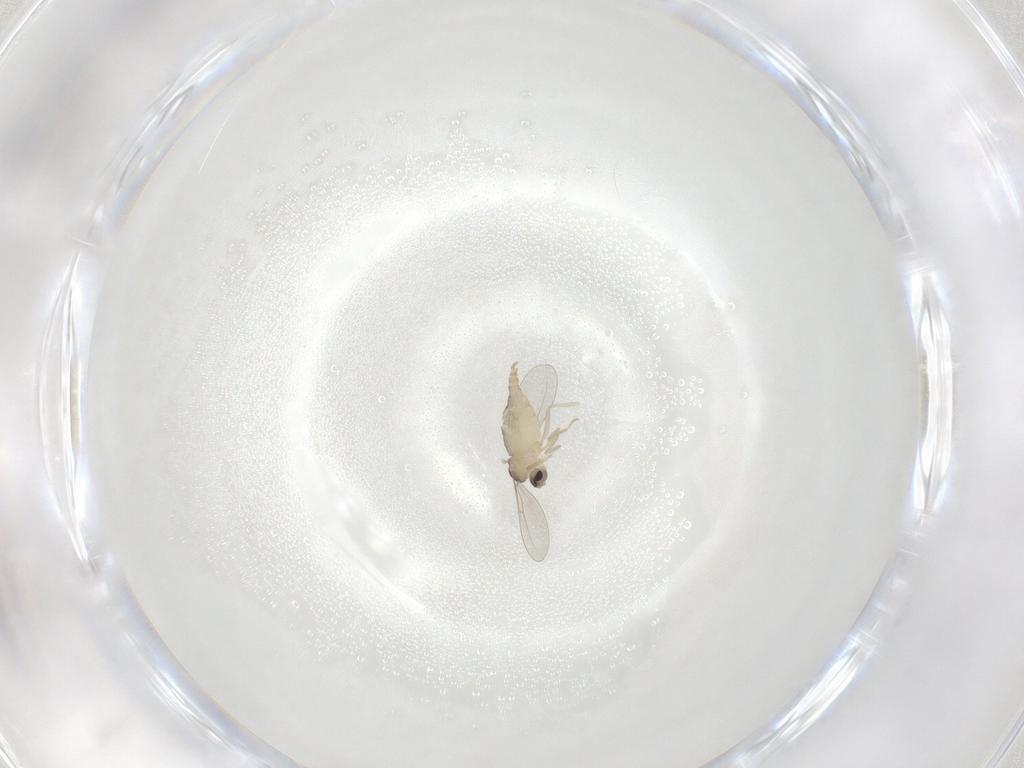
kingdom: Animalia
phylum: Arthropoda
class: Insecta
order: Diptera
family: Cecidomyiidae
